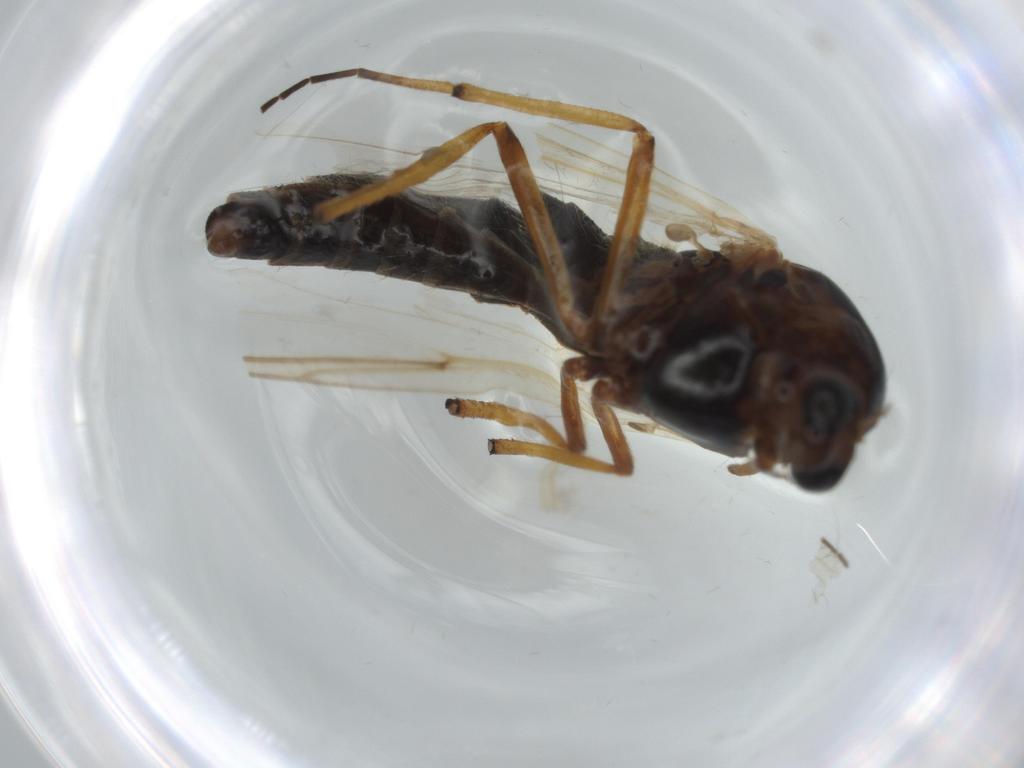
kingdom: Animalia
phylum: Arthropoda
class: Insecta
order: Diptera
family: Chironomidae
